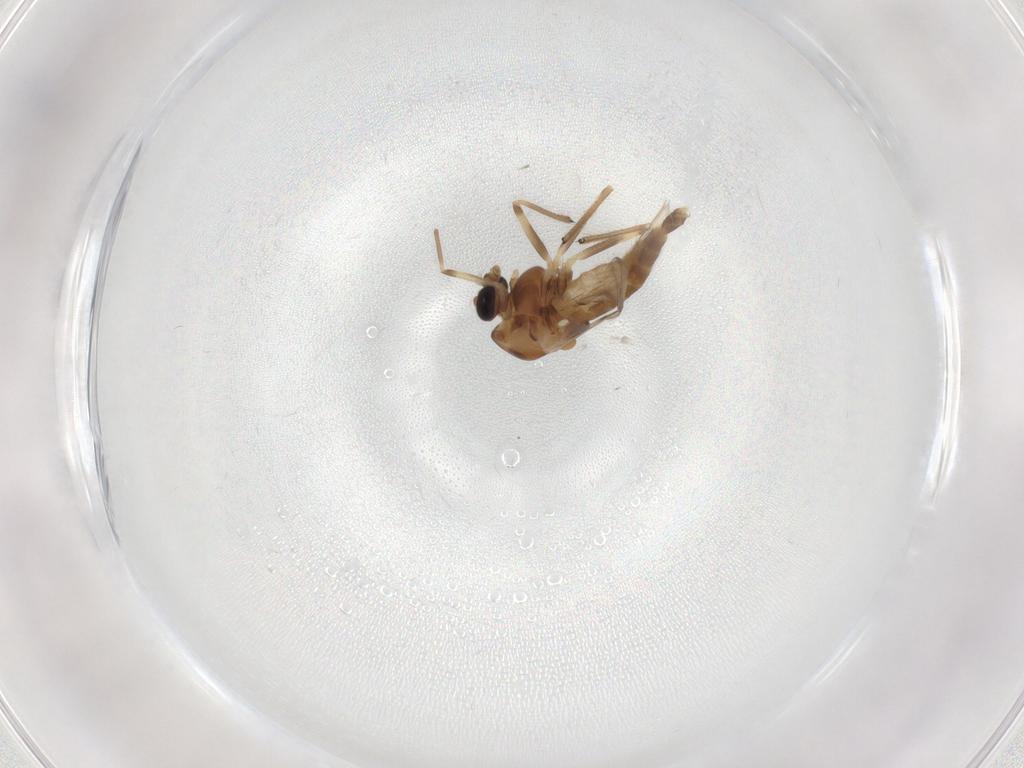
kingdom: Animalia
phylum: Arthropoda
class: Insecta
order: Diptera
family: Chironomidae
